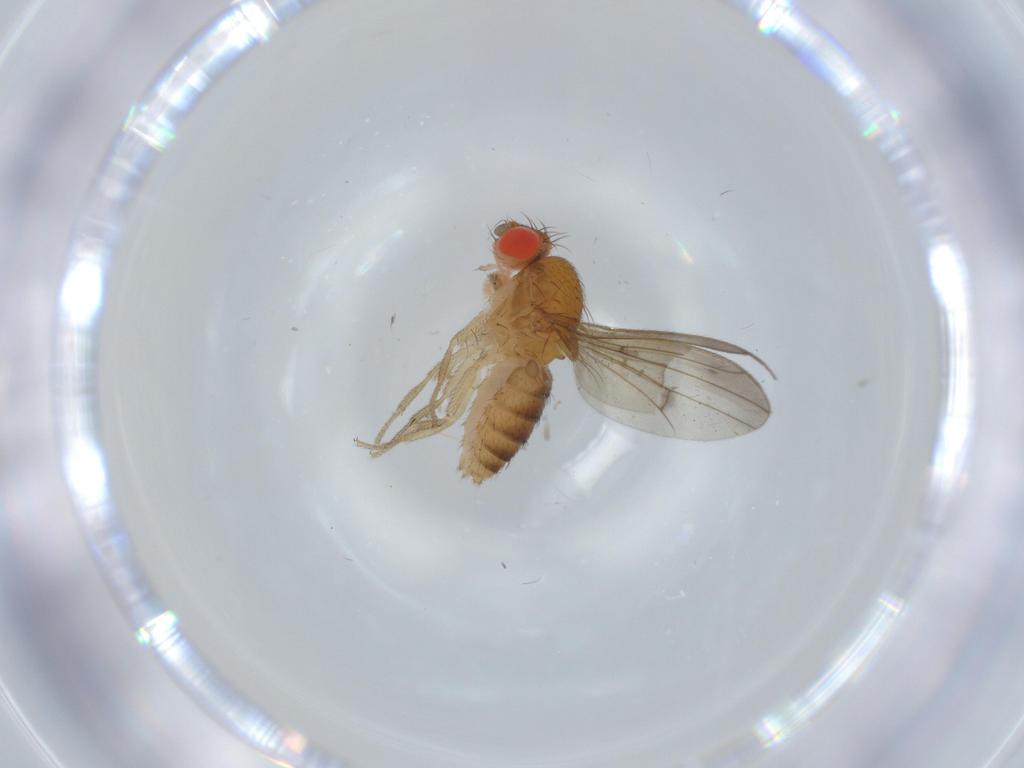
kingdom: Animalia
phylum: Arthropoda
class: Insecta
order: Diptera
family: Drosophilidae
